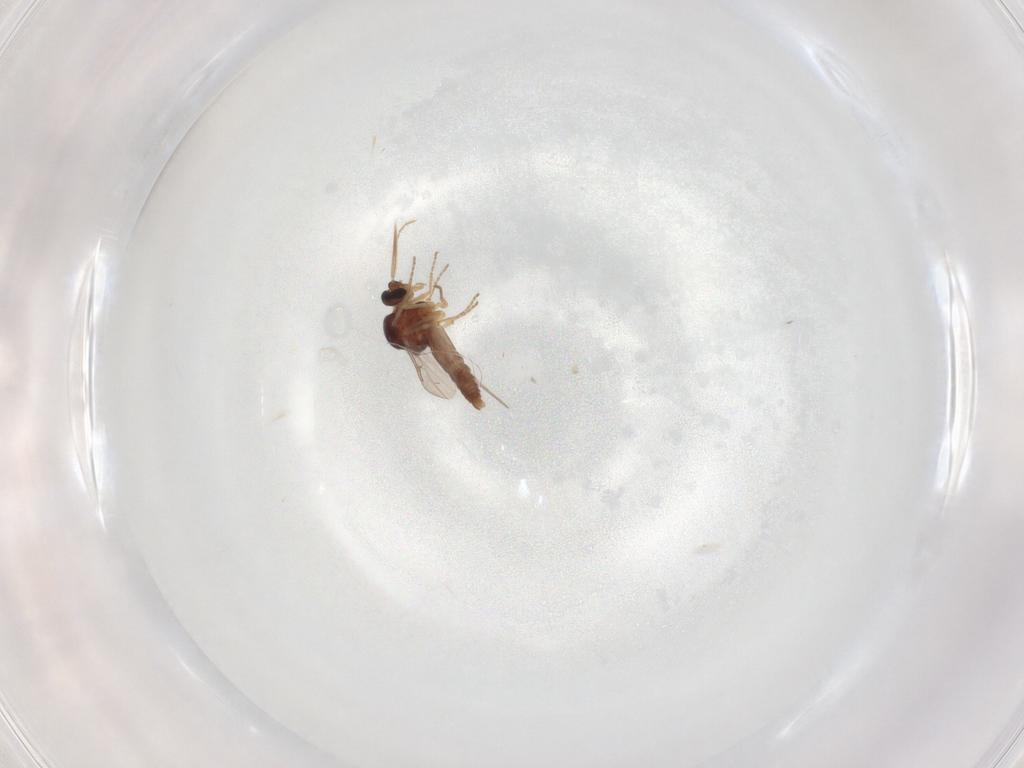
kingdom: Animalia
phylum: Arthropoda
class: Insecta
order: Diptera
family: Ceratopogonidae
